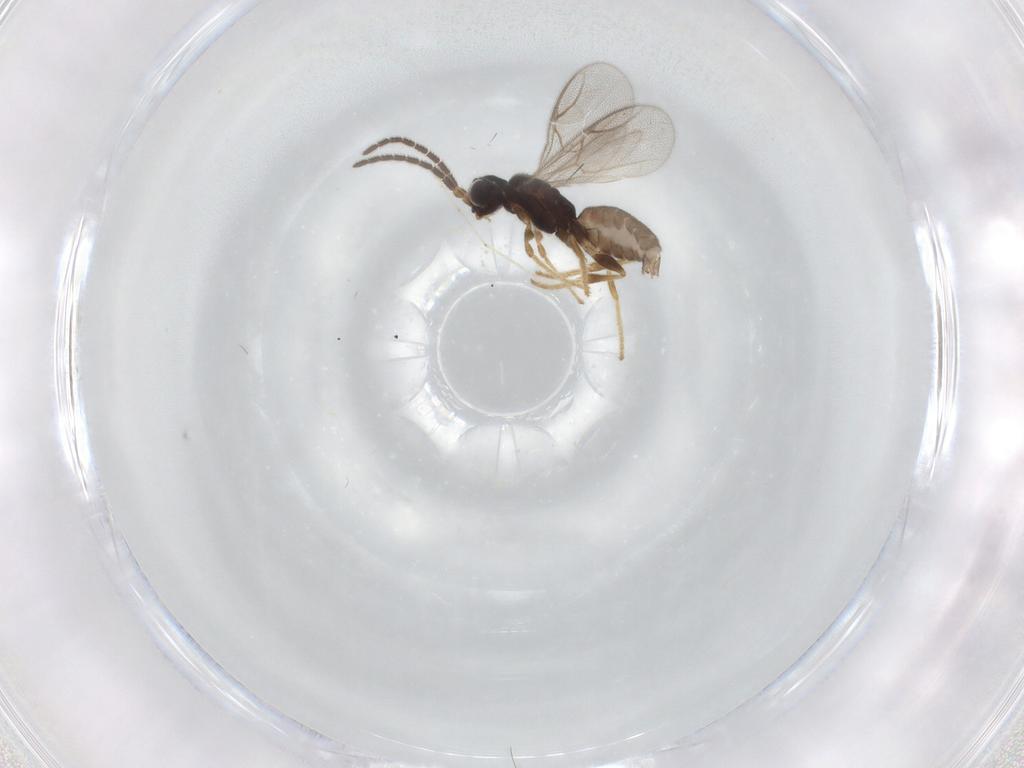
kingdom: Animalia
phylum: Arthropoda
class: Insecta
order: Hymenoptera
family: Dryinidae
